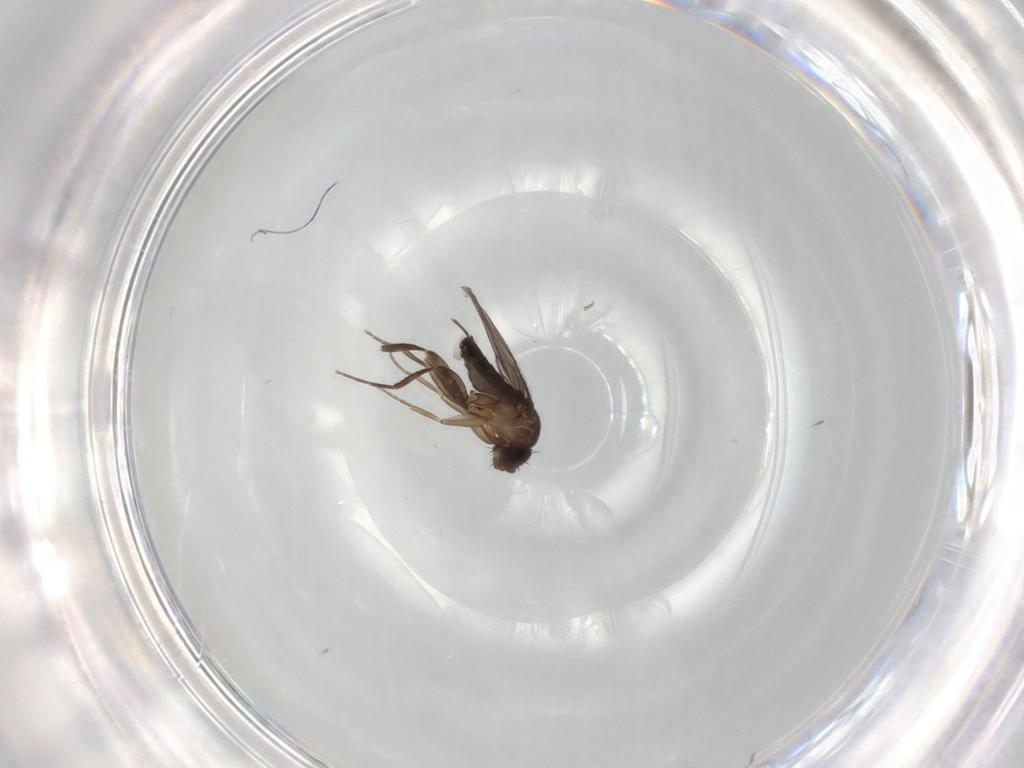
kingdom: Animalia
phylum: Arthropoda
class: Insecta
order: Diptera
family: Phoridae
